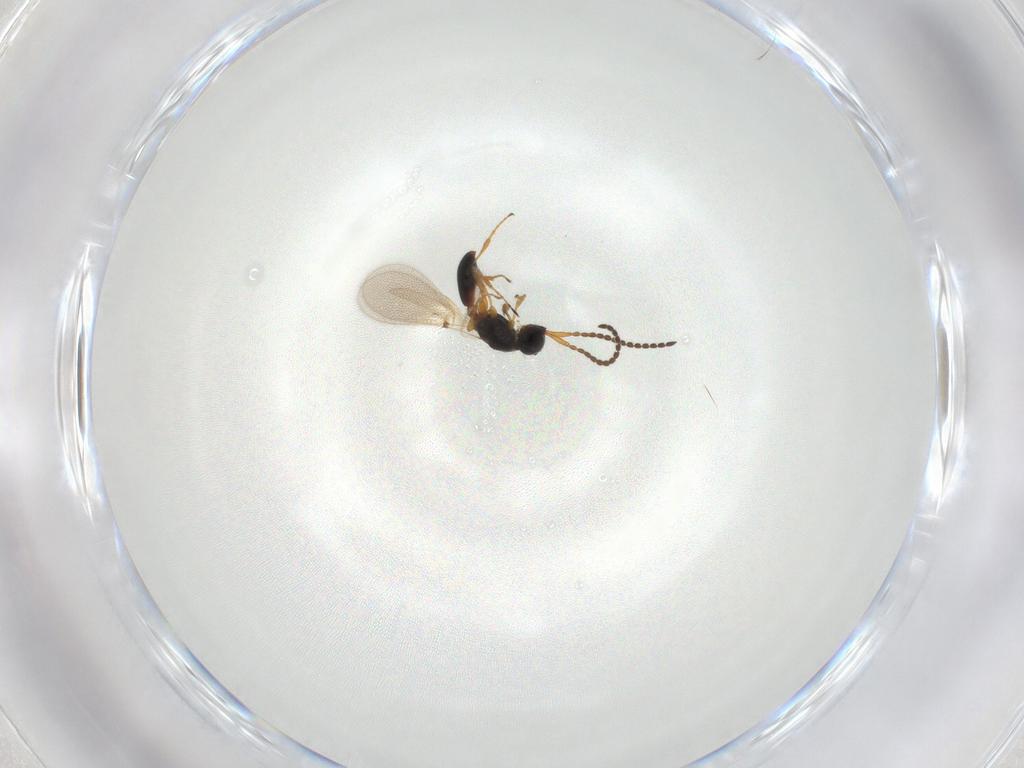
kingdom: Animalia
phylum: Arthropoda
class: Insecta
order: Hymenoptera
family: Diapriidae
